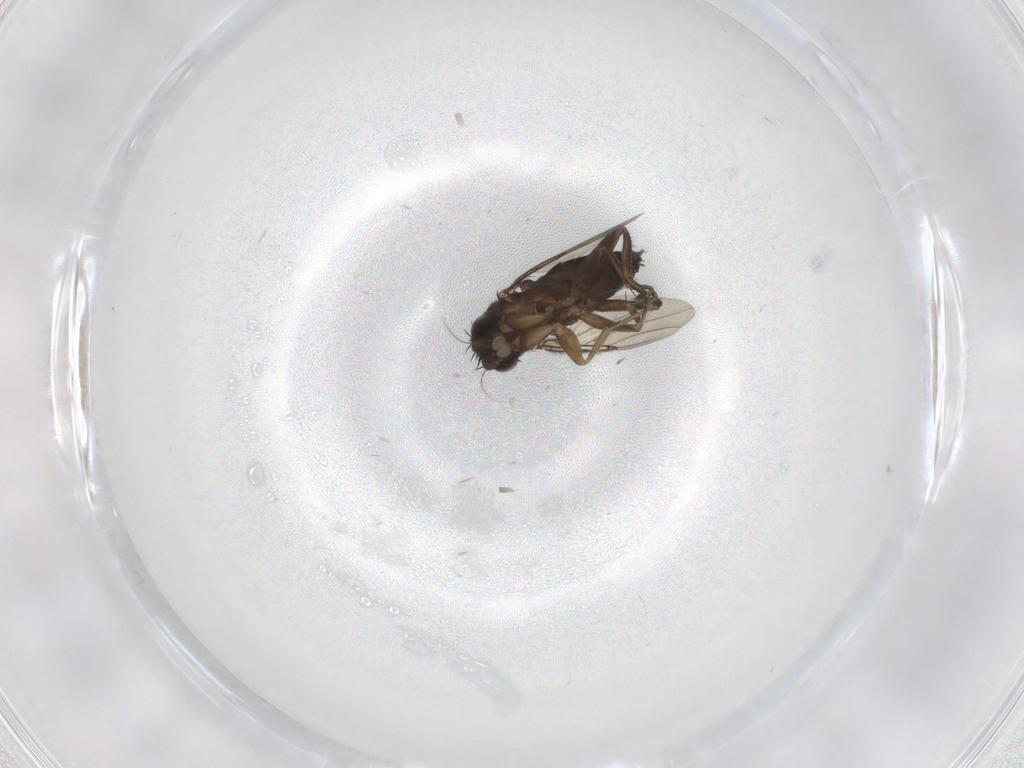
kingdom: Animalia
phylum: Arthropoda
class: Insecta
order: Diptera
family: Phoridae
